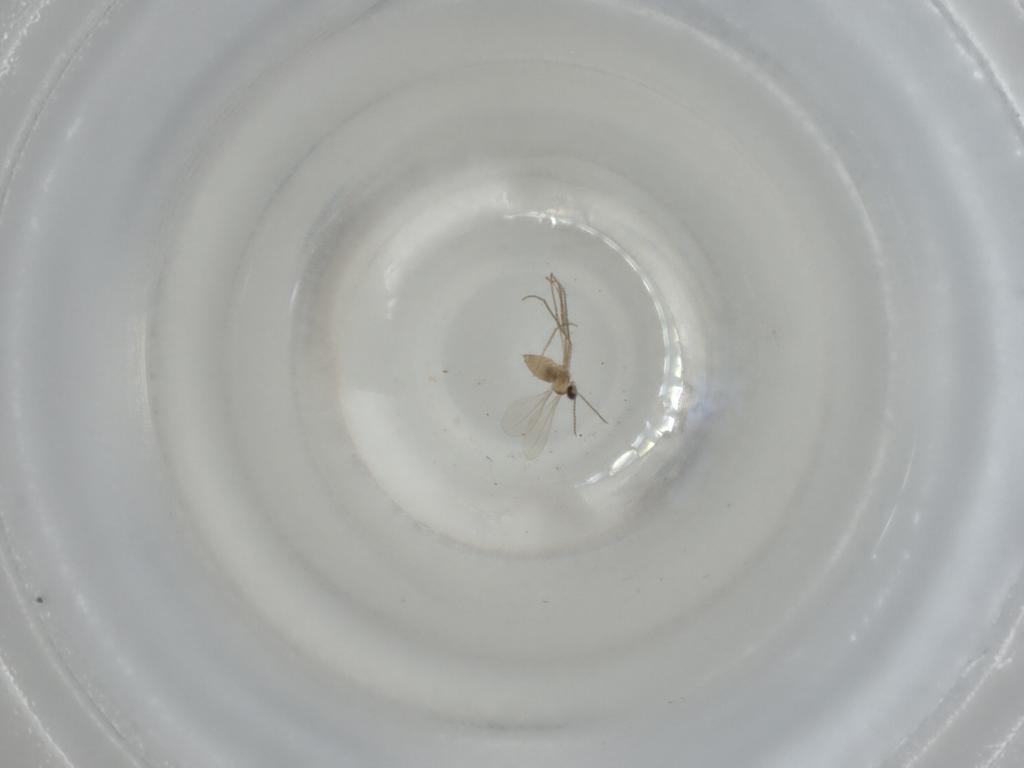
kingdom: Animalia
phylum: Arthropoda
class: Insecta
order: Diptera
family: Psychodidae
